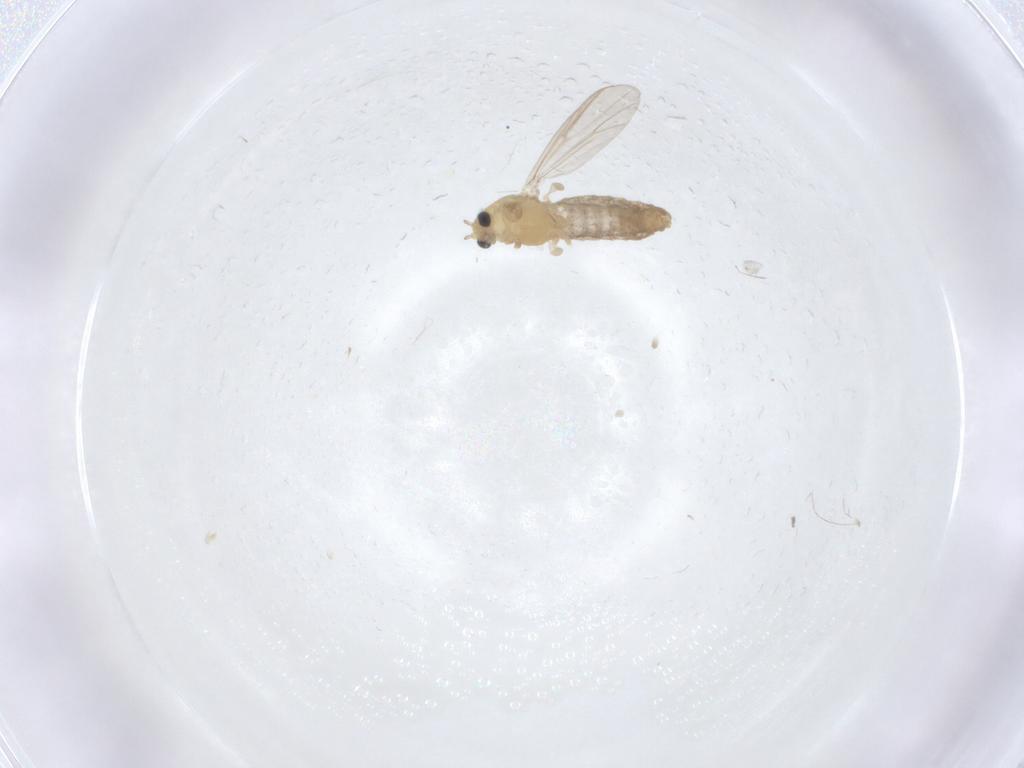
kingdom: Animalia
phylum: Arthropoda
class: Insecta
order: Diptera
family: Chironomidae
